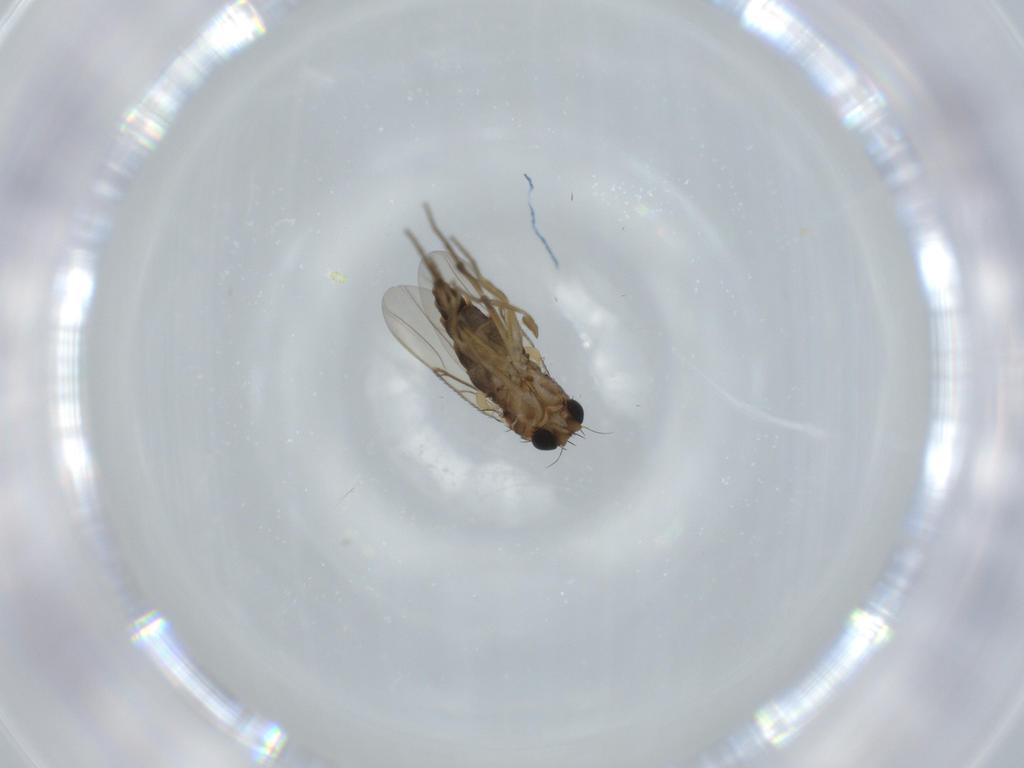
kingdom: Animalia
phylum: Arthropoda
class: Insecta
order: Diptera
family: Phoridae
